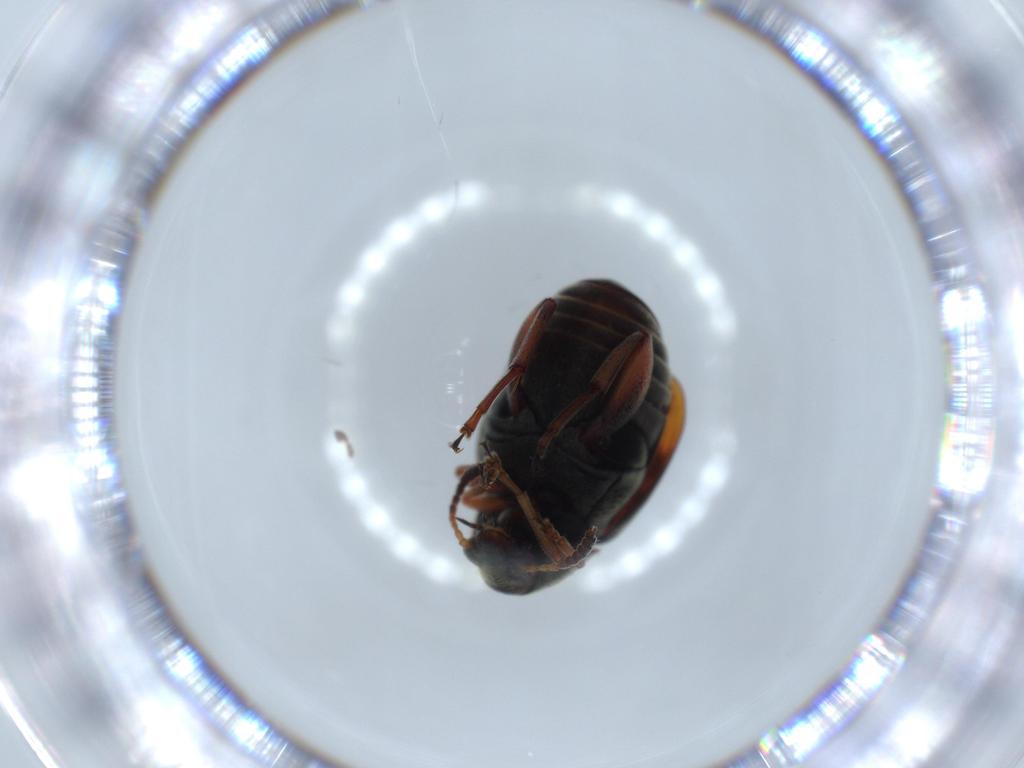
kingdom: Animalia
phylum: Arthropoda
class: Insecta
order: Coleoptera
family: Chrysomelidae
